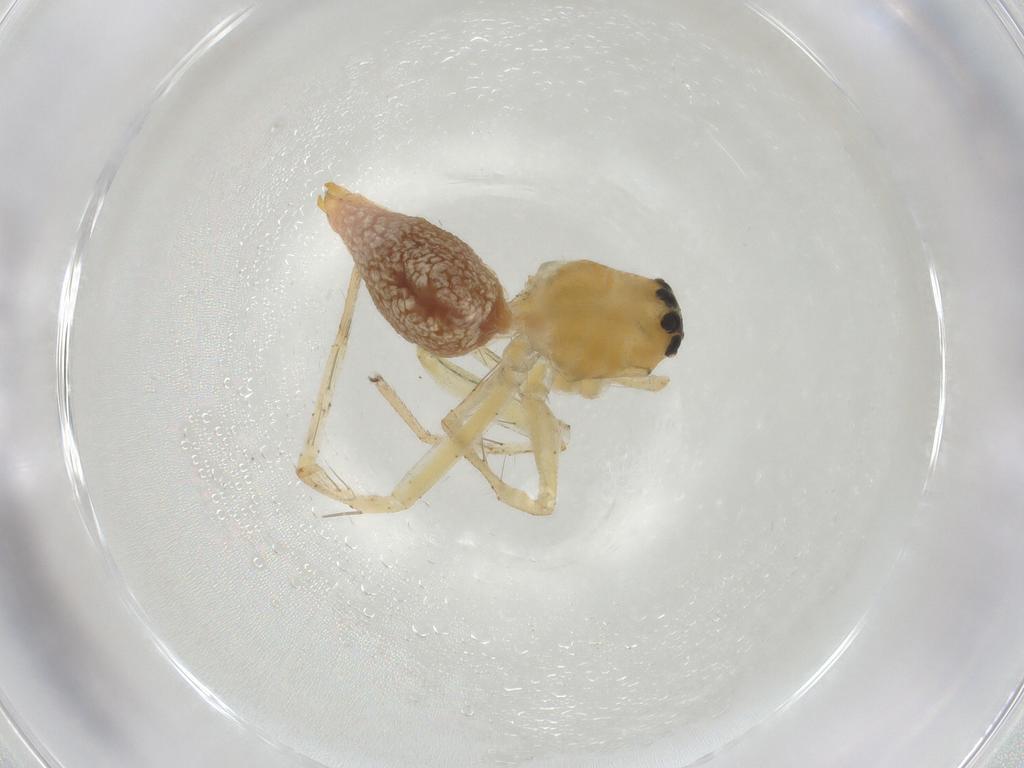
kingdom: Animalia
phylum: Arthropoda
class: Arachnida
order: Araneae
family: Oxyopidae
